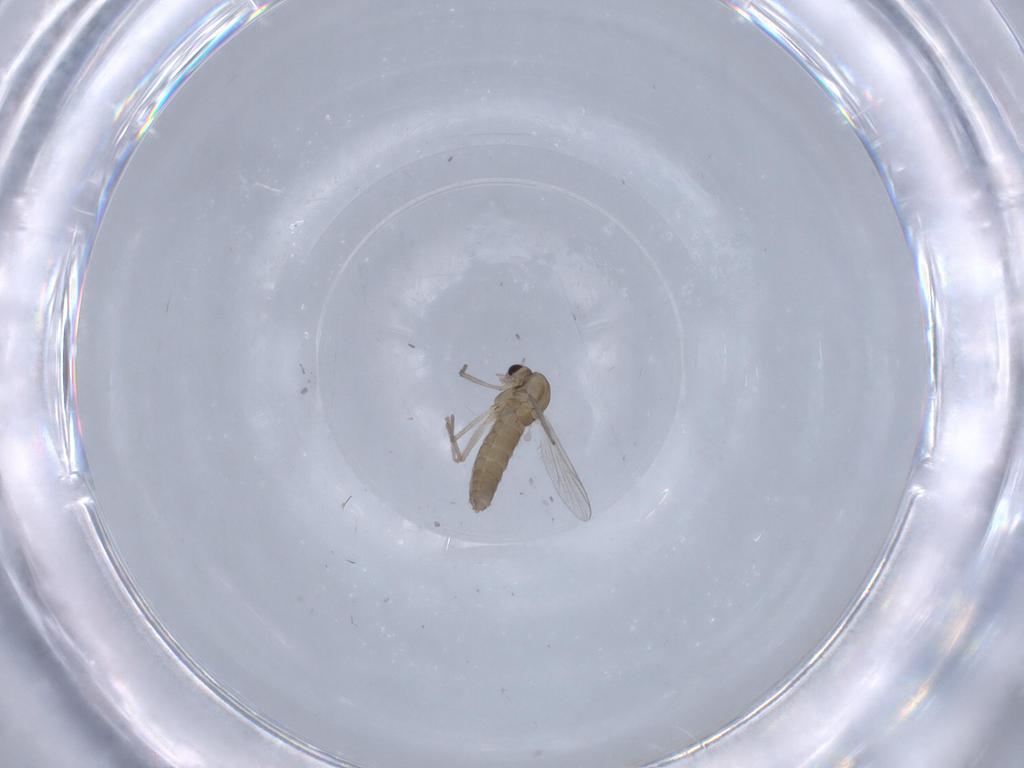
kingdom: Animalia
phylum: Arthropoda
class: Insecta
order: Diptera
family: Chironomidae
